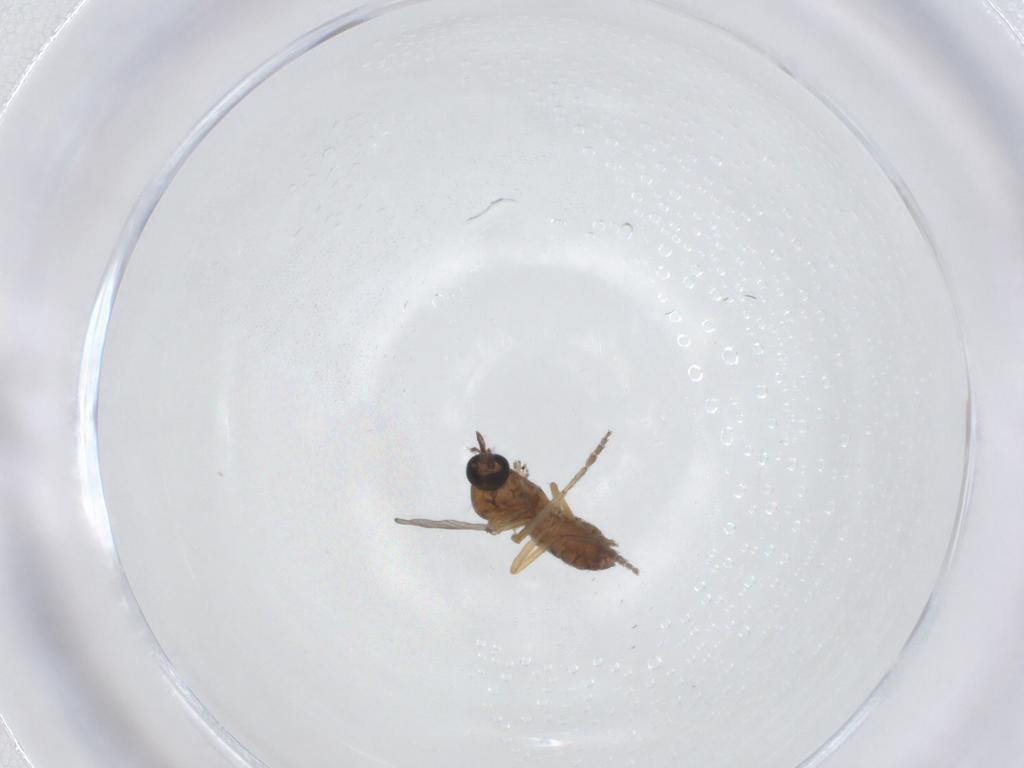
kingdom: Animalia
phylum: Arthropoda
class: Insecta
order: Diptera
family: Ceratopogonidae
